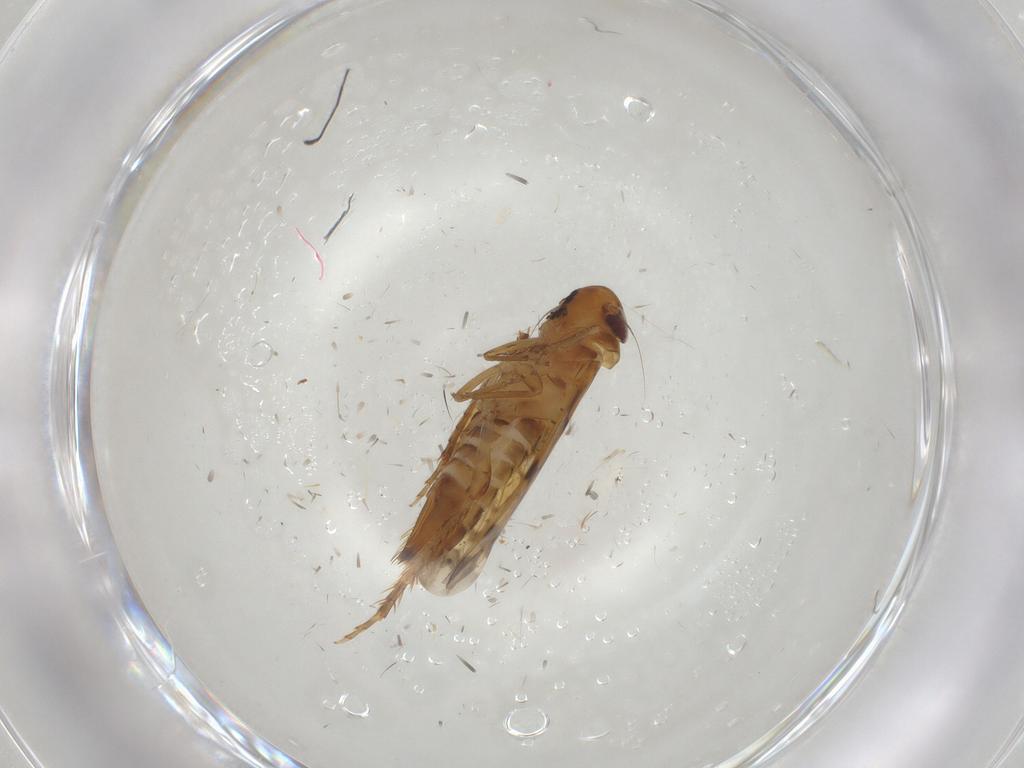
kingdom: Animalia
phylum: Arthropoda
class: Insecta
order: Hemiptera
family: Cicadellidae
